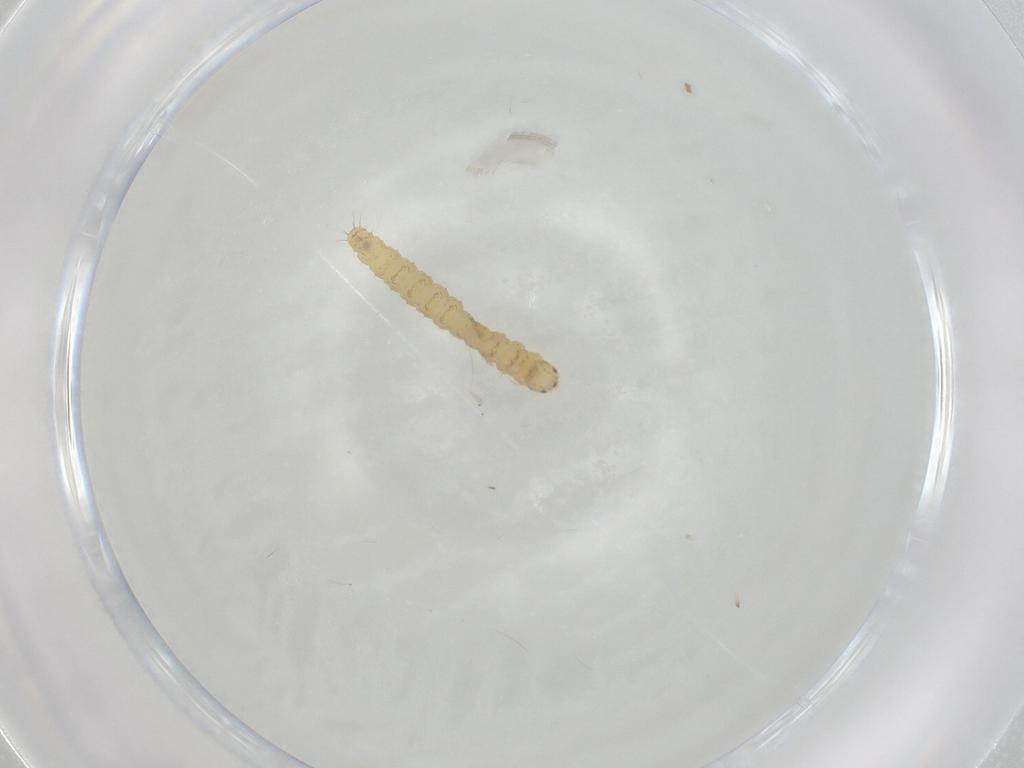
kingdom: Animalia
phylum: Arthropoda
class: Insecta
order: Lepidoptera
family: Gelechiidae
